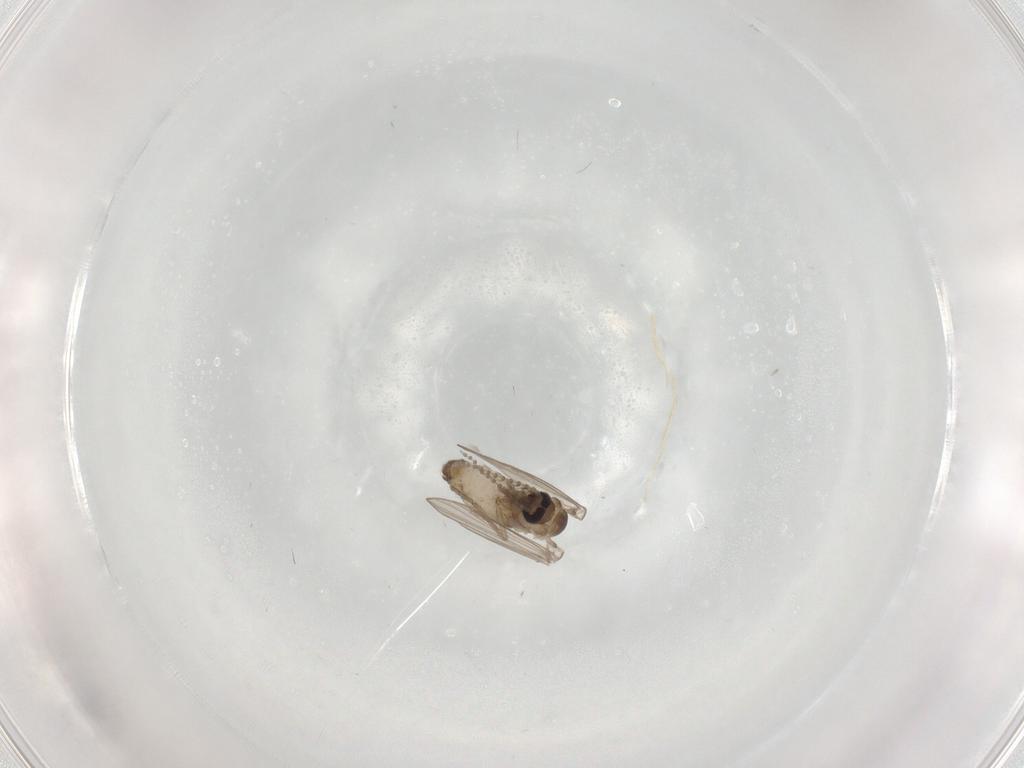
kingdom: Animalia
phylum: Arthropoda
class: Insecta
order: Diptera
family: Psychodidae
